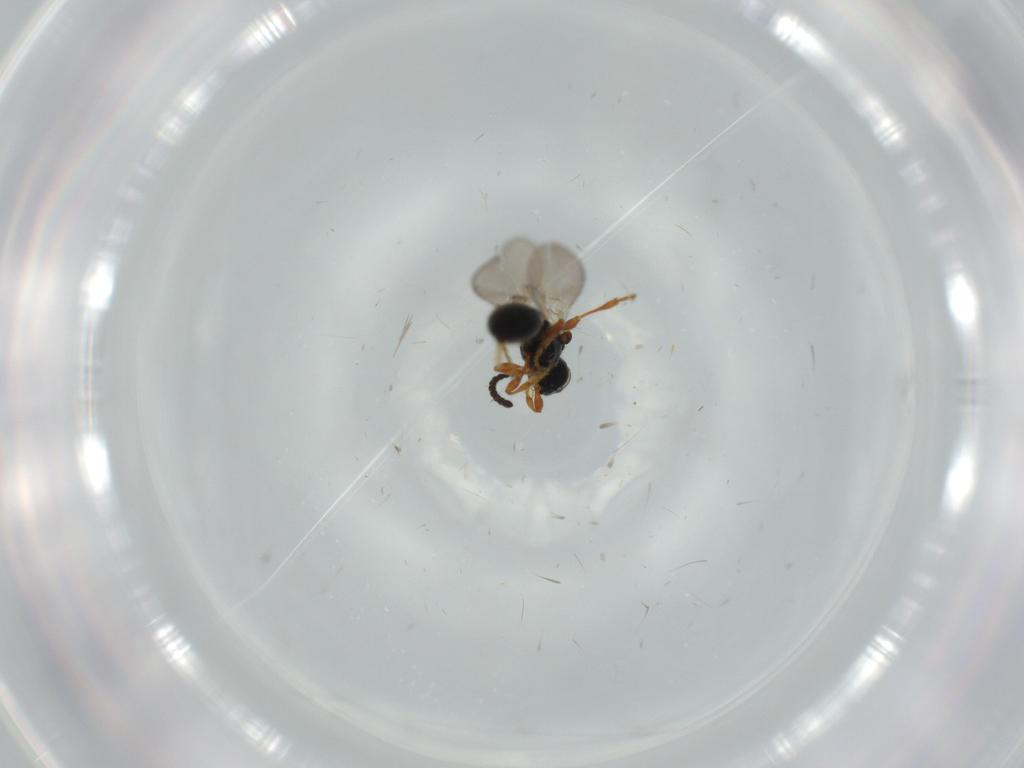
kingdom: Animalia
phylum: Arthropoda
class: Insecta
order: Hymenoptera
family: Diapriidae
